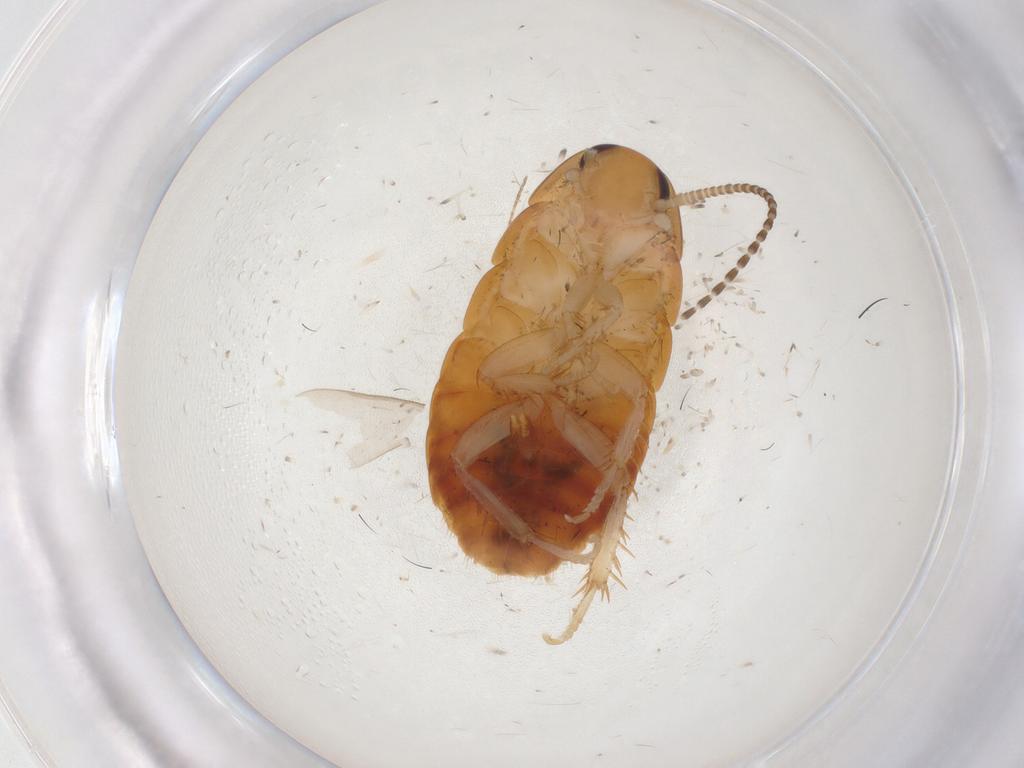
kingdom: Animalia
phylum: Arthropoda
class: Insecta
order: Blattodea
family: Blaberidae
